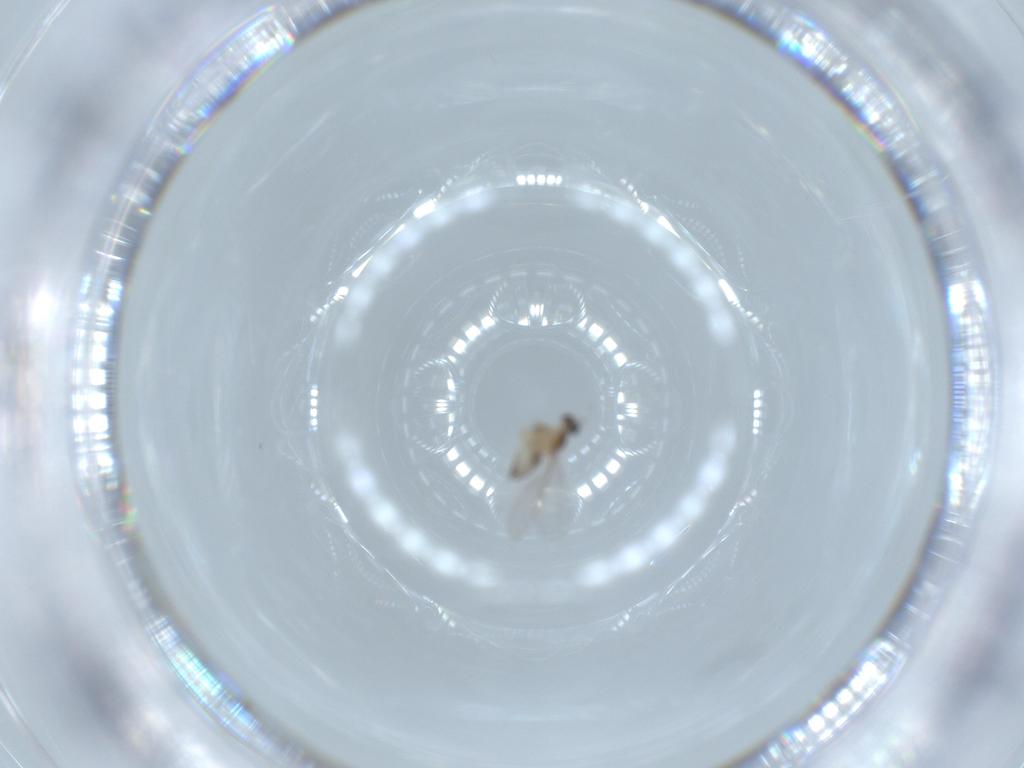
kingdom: Animalia
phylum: Arthropoda
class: Insecta
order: Diptera
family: Cecidomyiidae
